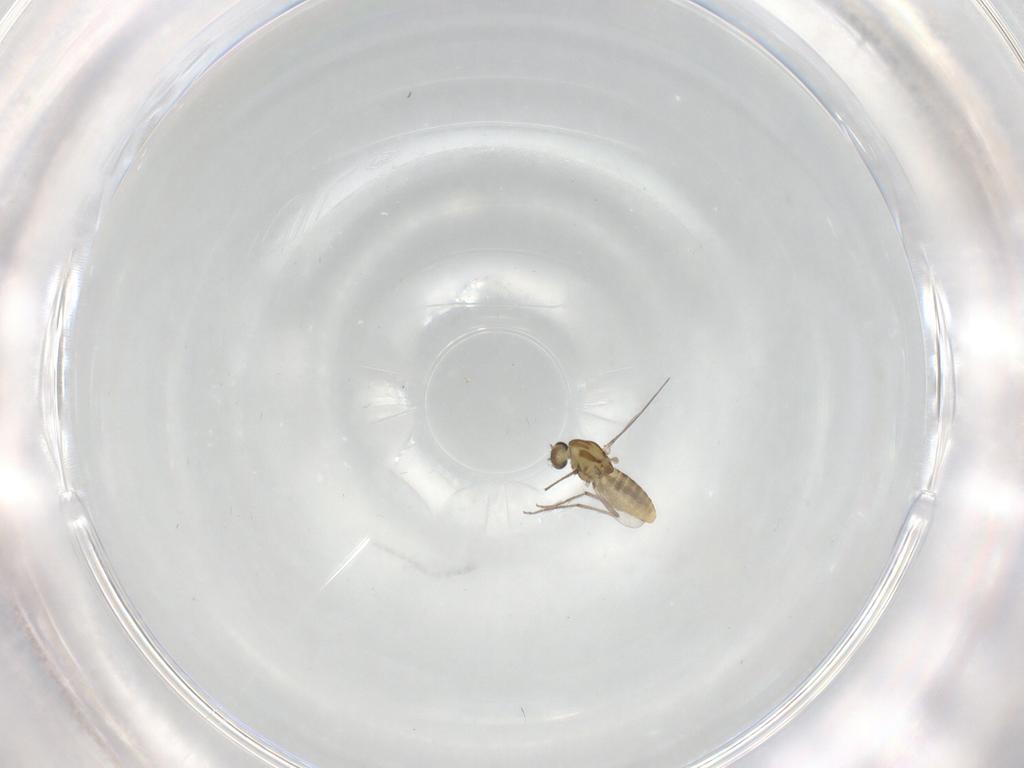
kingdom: Animalia
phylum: Arthropoda
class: Insecta
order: Diptera
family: Chironomidae
